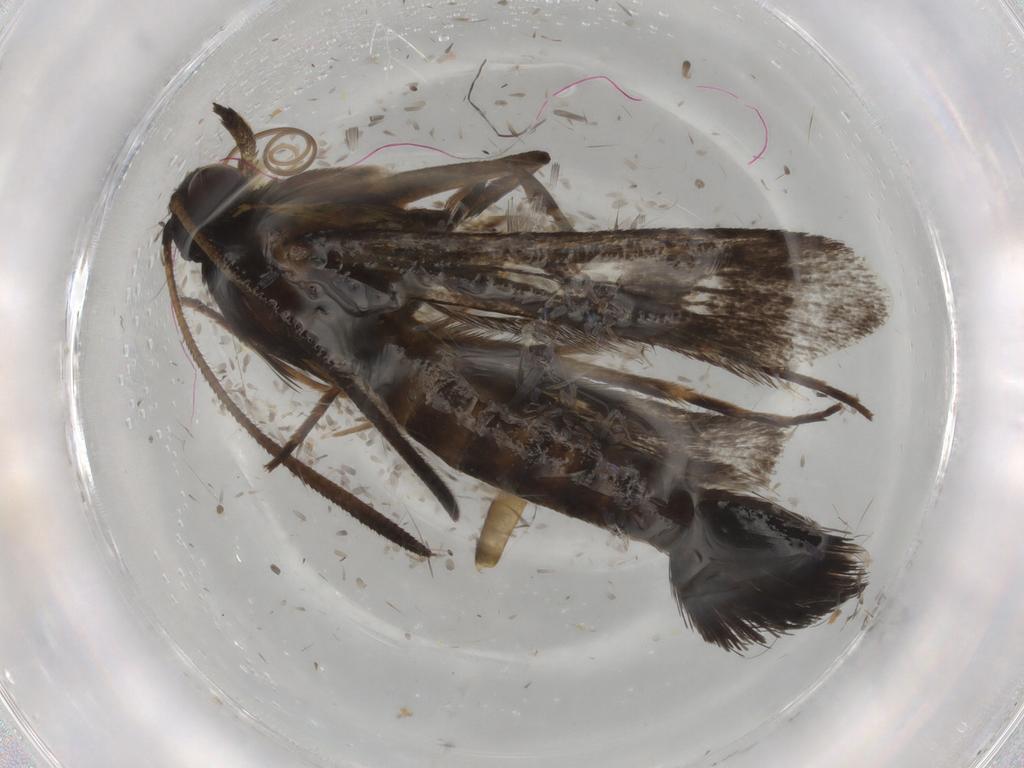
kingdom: Animalia
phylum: Arthropoda
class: Insecta
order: Lepidoptera
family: Sesiidae
